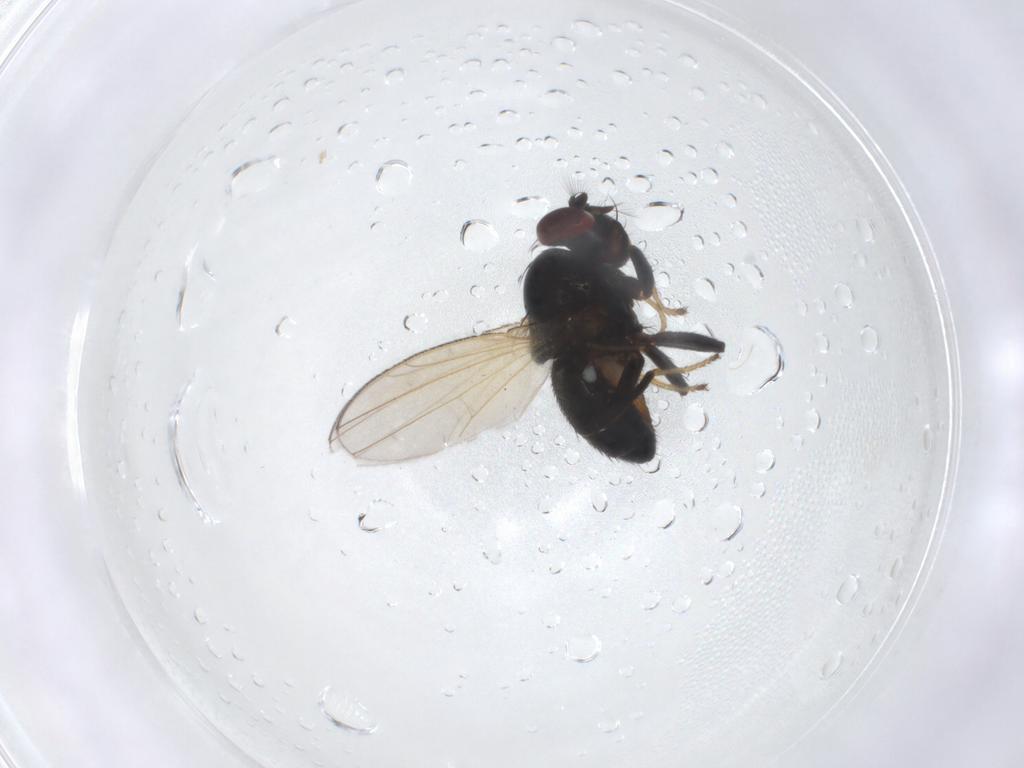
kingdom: Animalia
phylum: Arthropoda
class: Insecta
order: Diptera
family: Ephydridae
